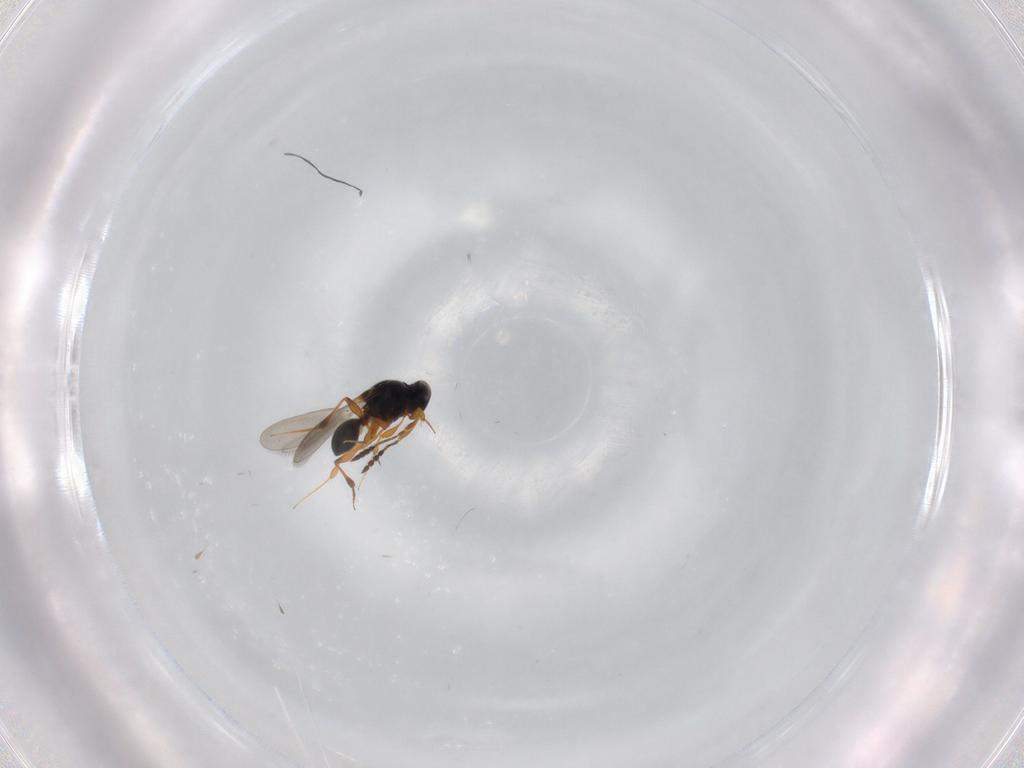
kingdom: Animalia
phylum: Arthropoda
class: Insecta
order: Hymenoptera
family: Platygastridae
